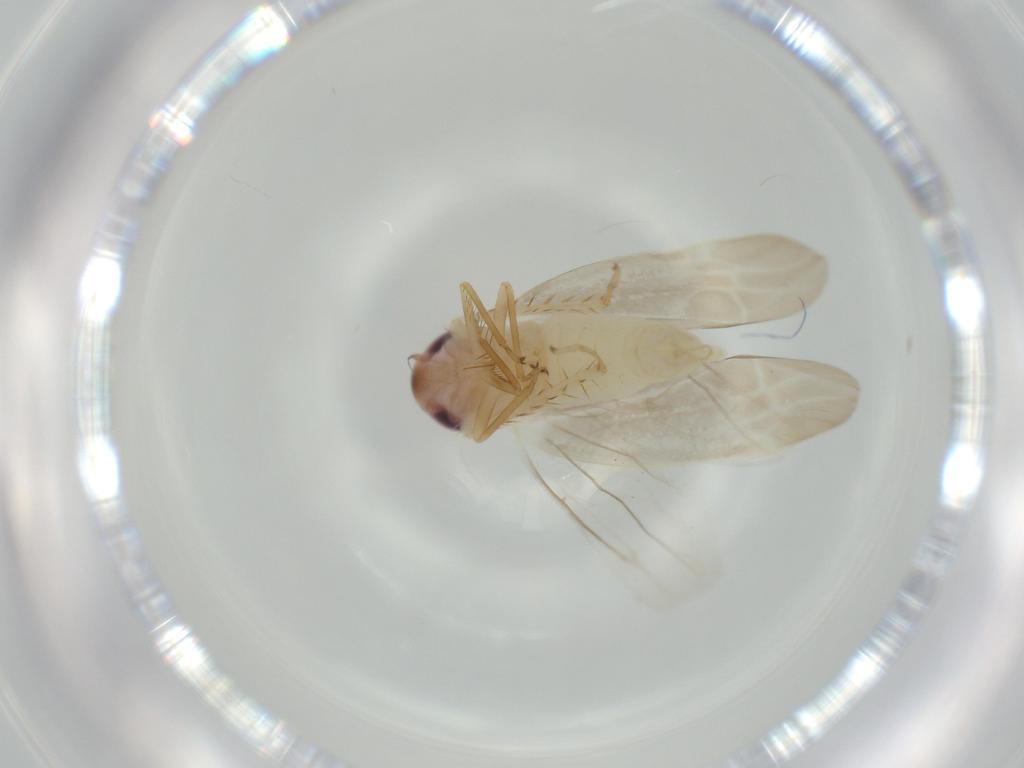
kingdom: Animalia
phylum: Arthropoda
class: Insecta
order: Hemiptera
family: Cicadellidae
